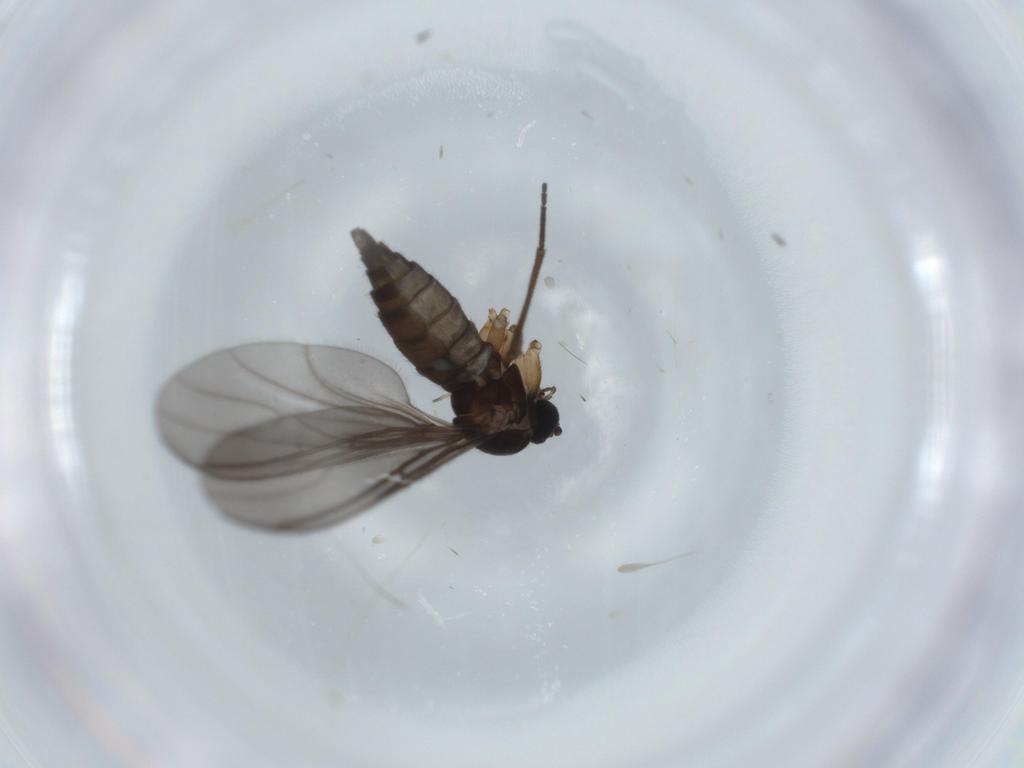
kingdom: Animalia
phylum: Arthropoda
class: Insecta
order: Diptera
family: Sciaridae
